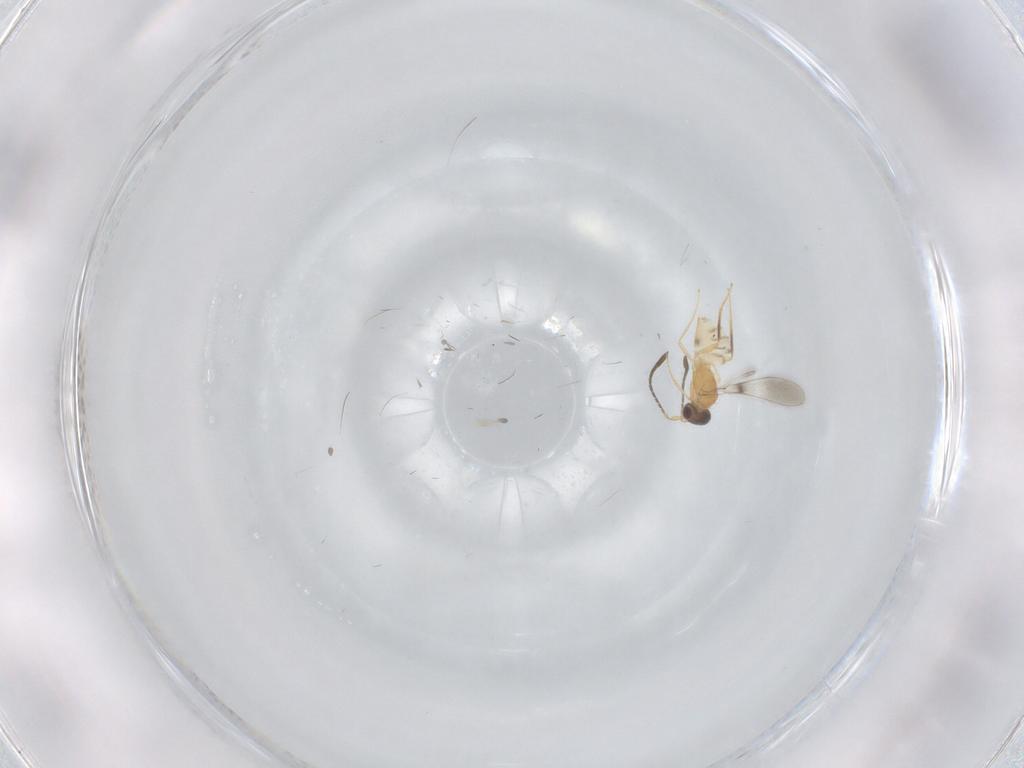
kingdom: Animalia
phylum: Arthropoda
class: Insecta
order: Hymenoptera
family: Mymaridae
